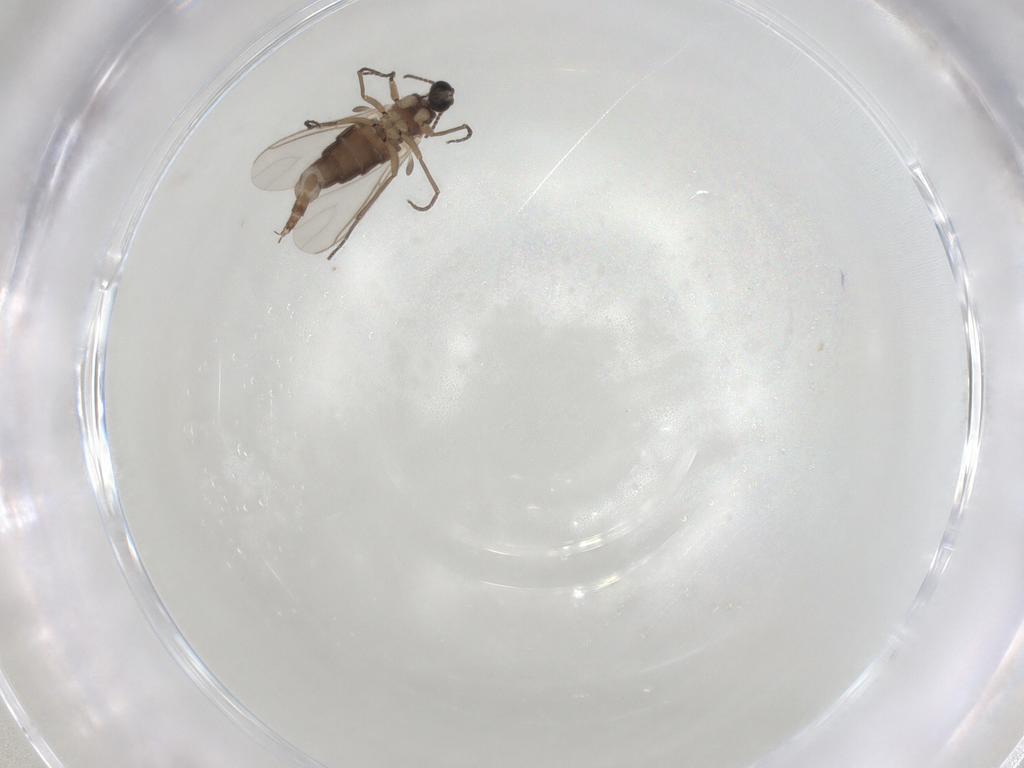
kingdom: Animalia
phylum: Arthropoda
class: Insecta
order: Diptera
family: Sciaridae
